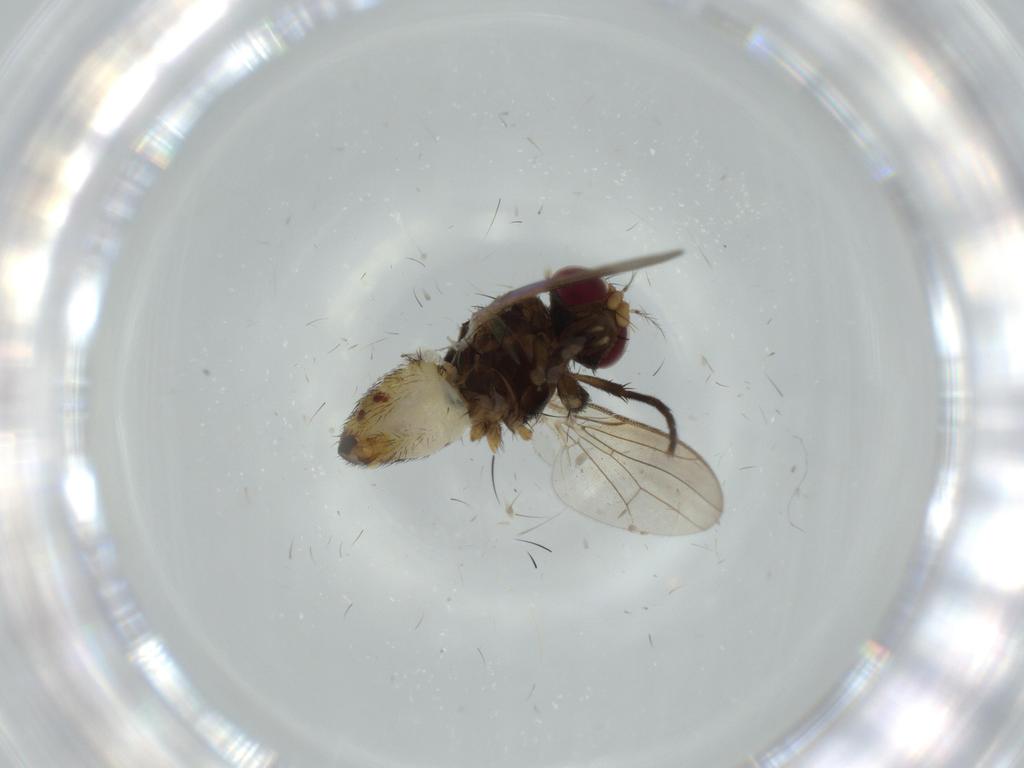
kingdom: Animalia
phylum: Arthropoda
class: Insecta
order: Diptera
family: Anthomyiidae
